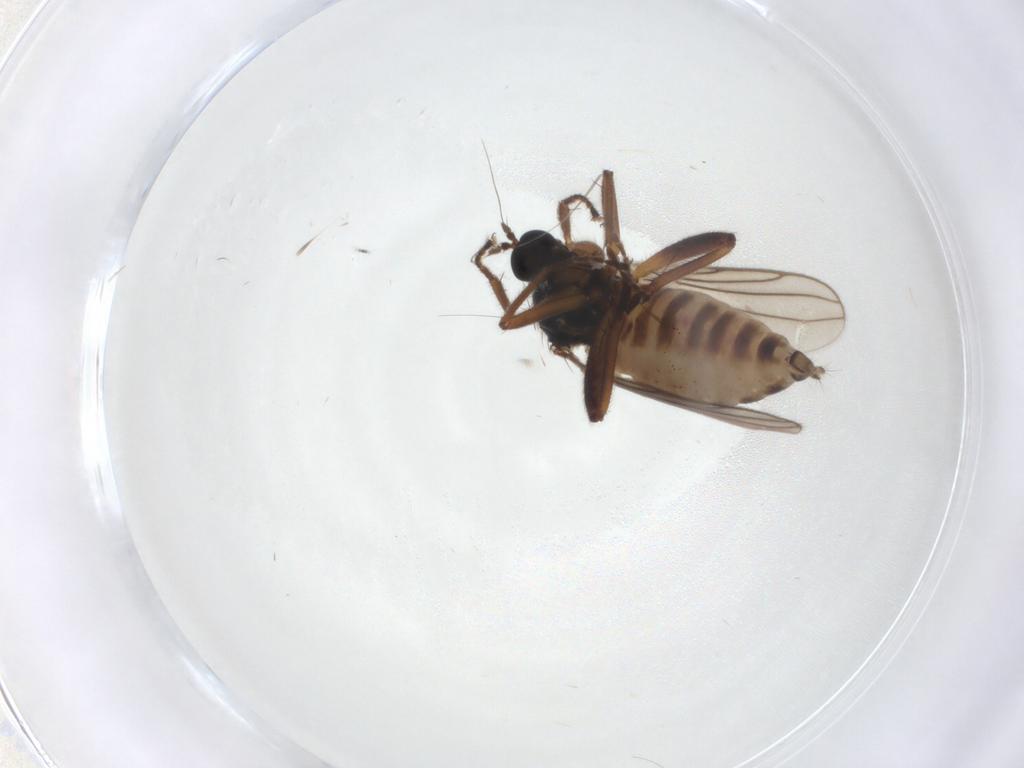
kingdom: Animalia
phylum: Arthropoda
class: Insecta
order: Diptera
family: Hybotidae
